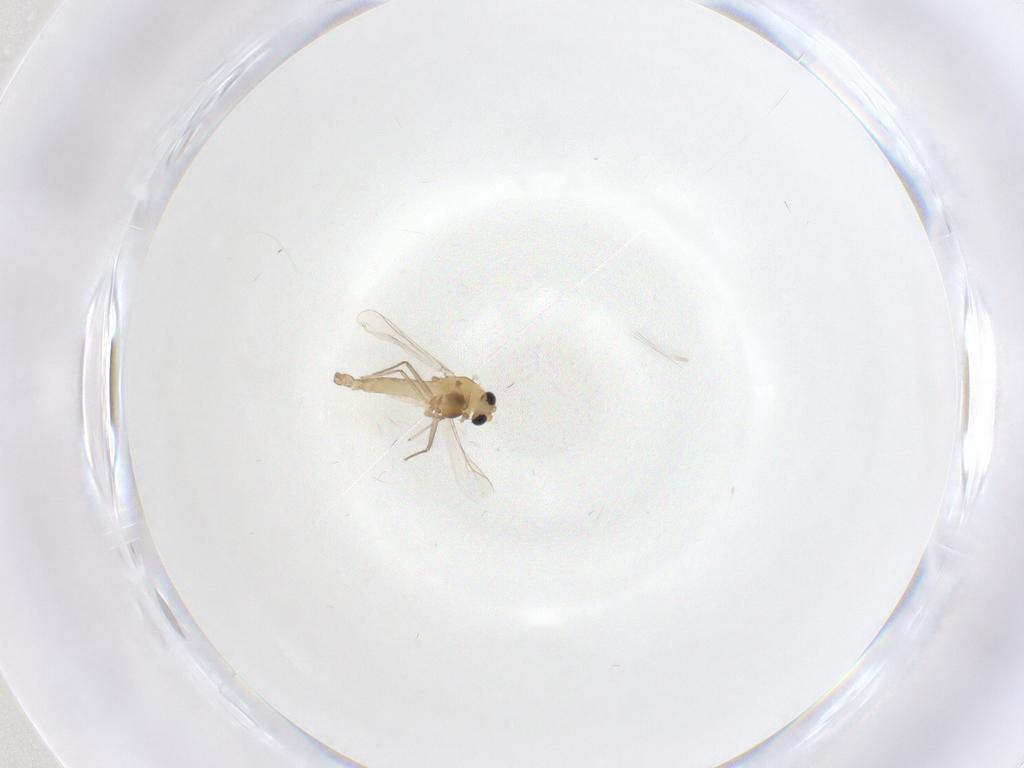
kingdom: Animalia
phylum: Arthropoda
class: Insecta
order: Diptera
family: Chironomidae
